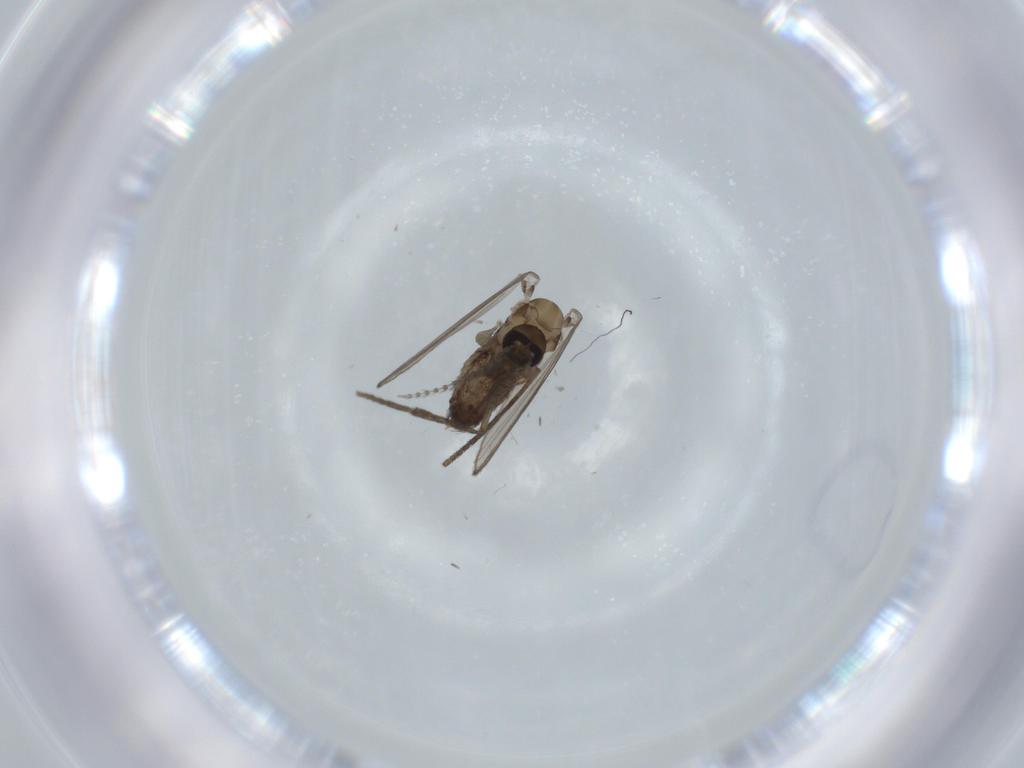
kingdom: Animalia
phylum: Arthropoda
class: Insecta
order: Diptera
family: Psychodidae
